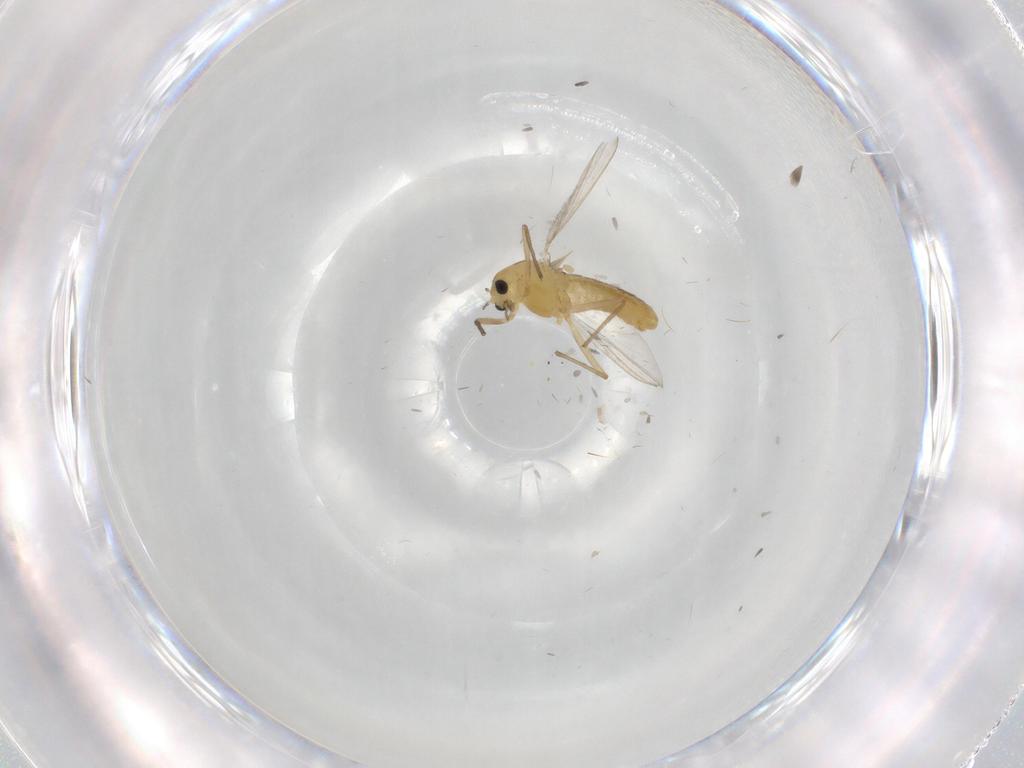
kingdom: Animalia
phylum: Arthropoda
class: Insecta
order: Diptera
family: Chironomidae
